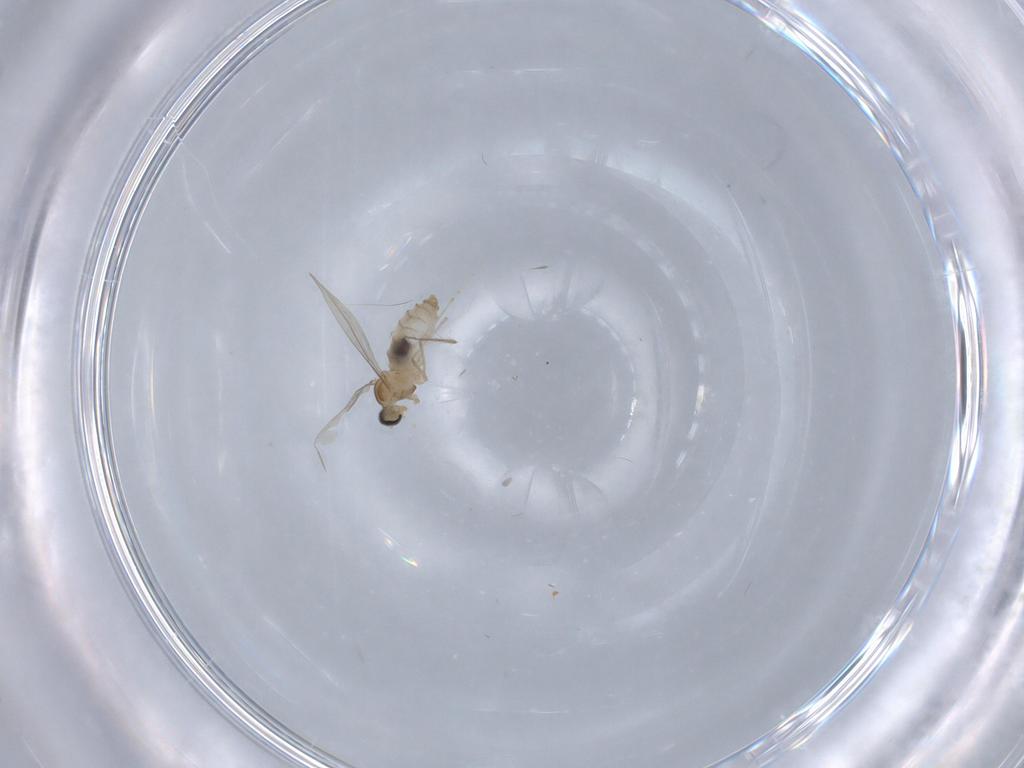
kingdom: Animalia
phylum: Arthropoda
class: Insecta
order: Diptera
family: Cecidomyiidae
